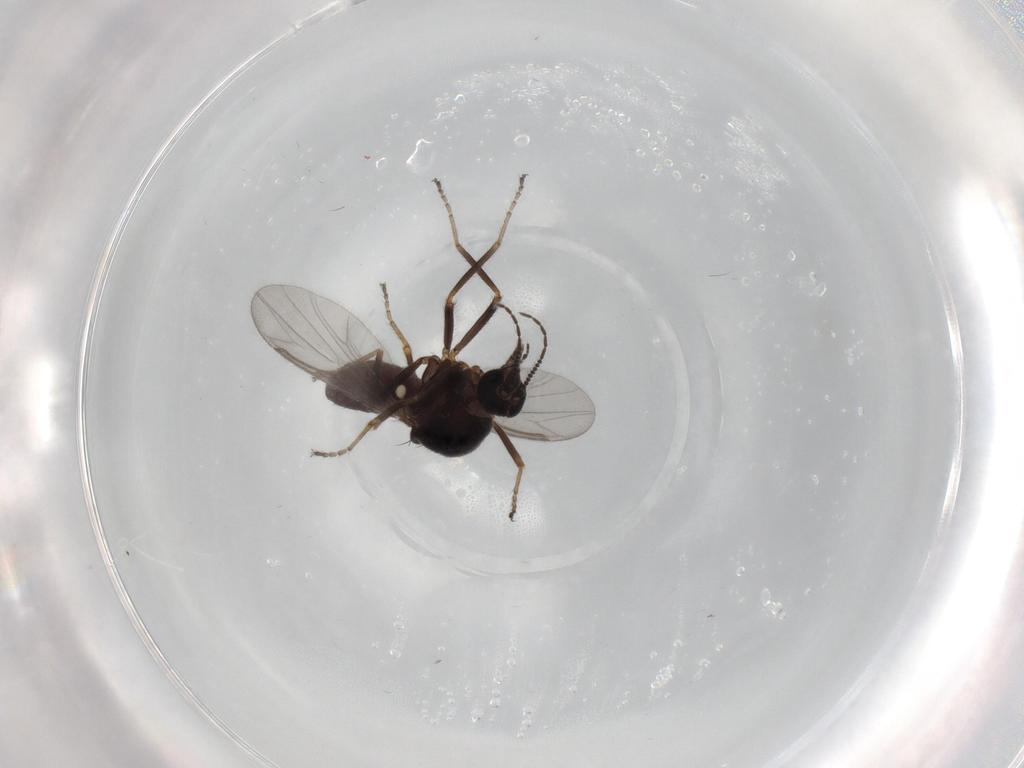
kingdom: Animalia
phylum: Arthropoda
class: Insecta
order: Diptera
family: Ceratopogonidae
